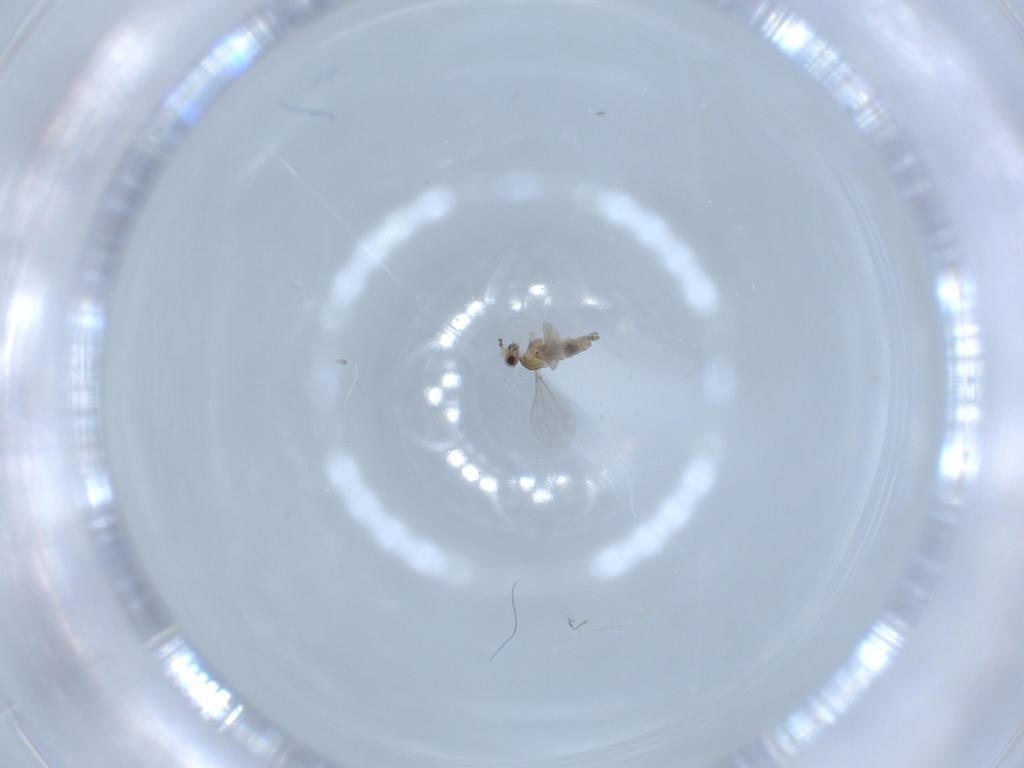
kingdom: Animalia
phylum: Arthropoda
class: Insecta
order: Diptera
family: Cecidomyiidae
